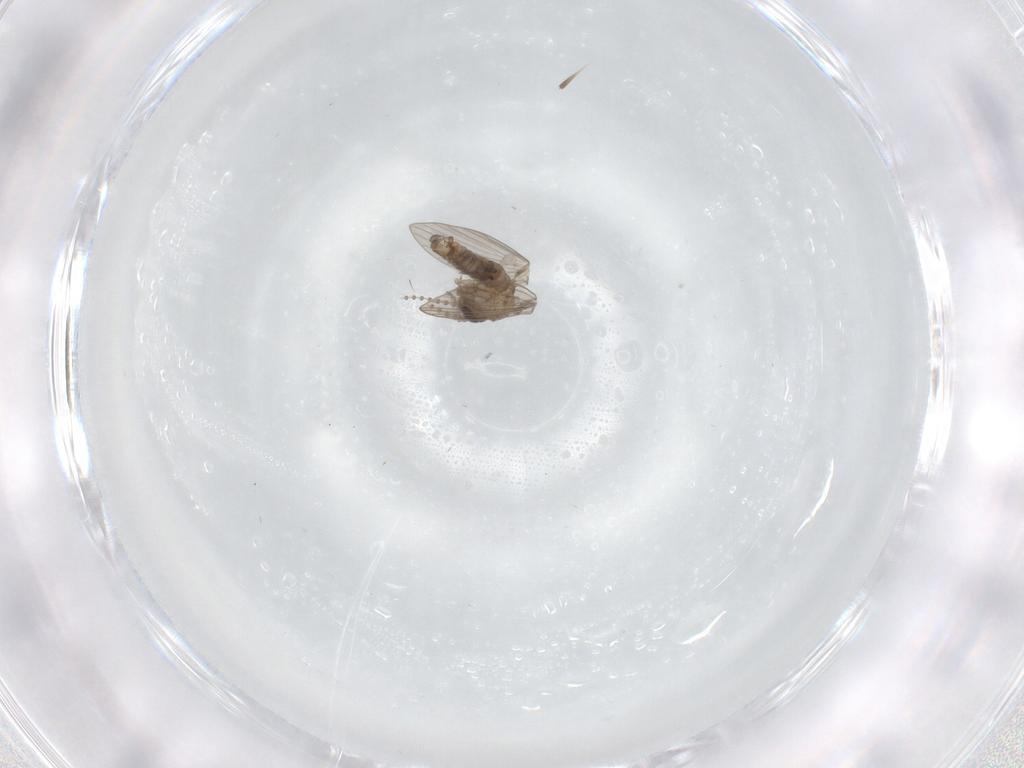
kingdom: Animalia
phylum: Arthropoda
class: Insecta
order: Diptera
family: Psychodidae
